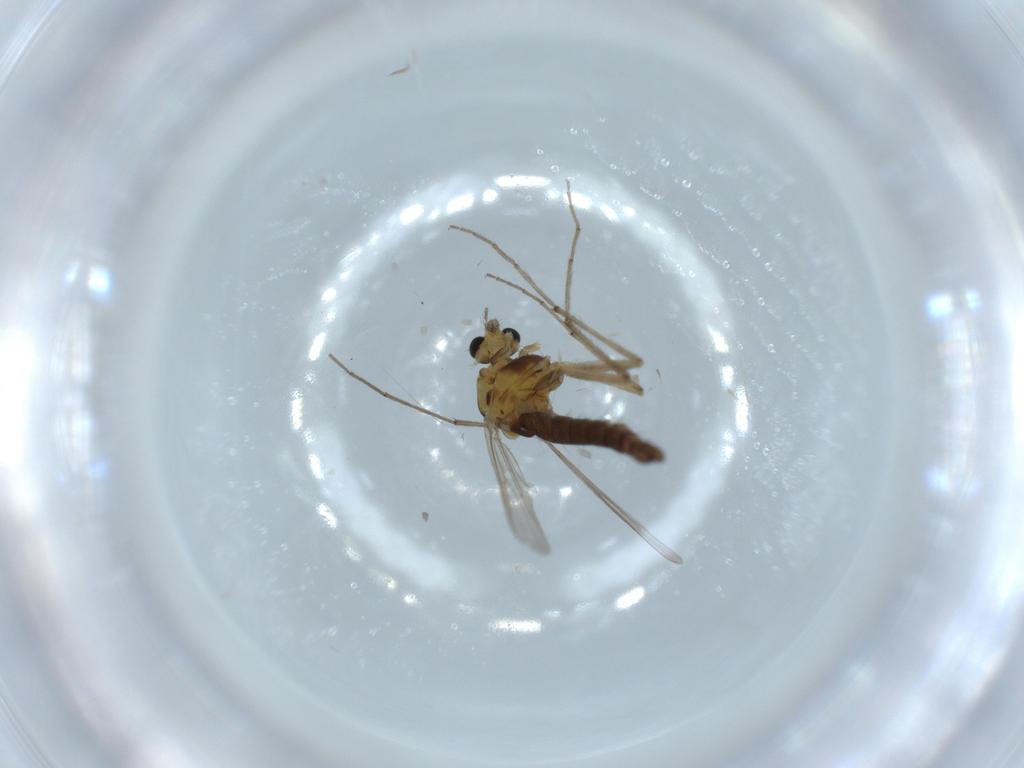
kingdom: Animalia
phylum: Arthropoda
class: Insecta
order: Diptera
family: Chironomidae
